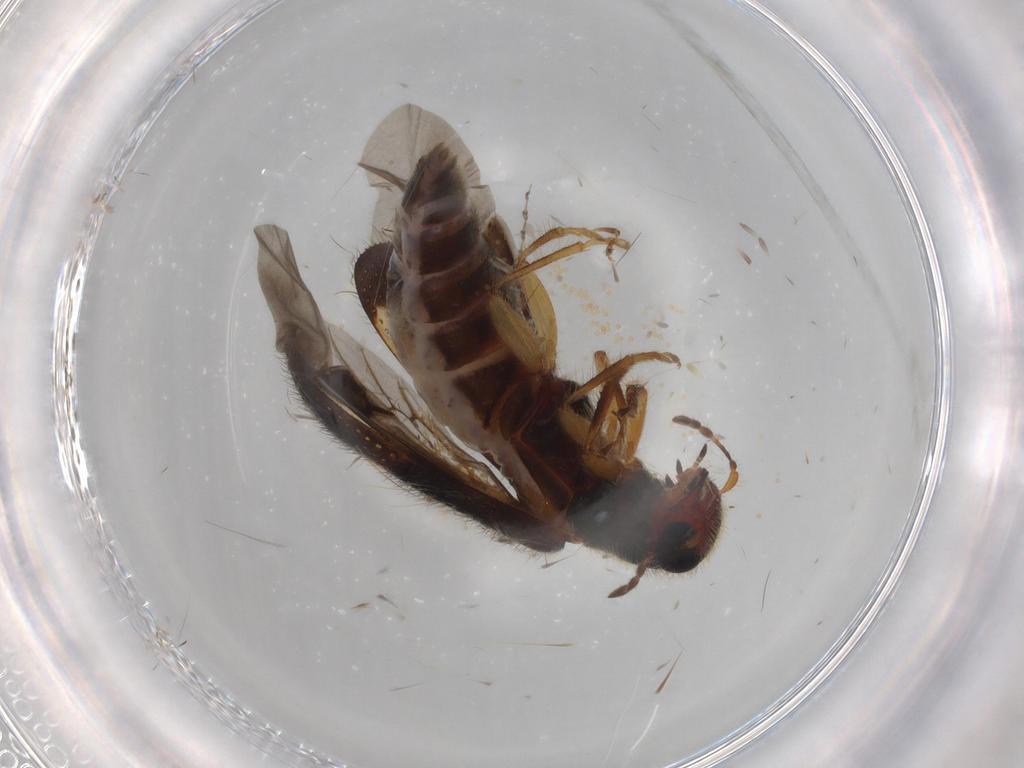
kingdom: Animalia
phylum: Arthropoda
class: Insecta
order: Coleoptera
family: Cleridae
